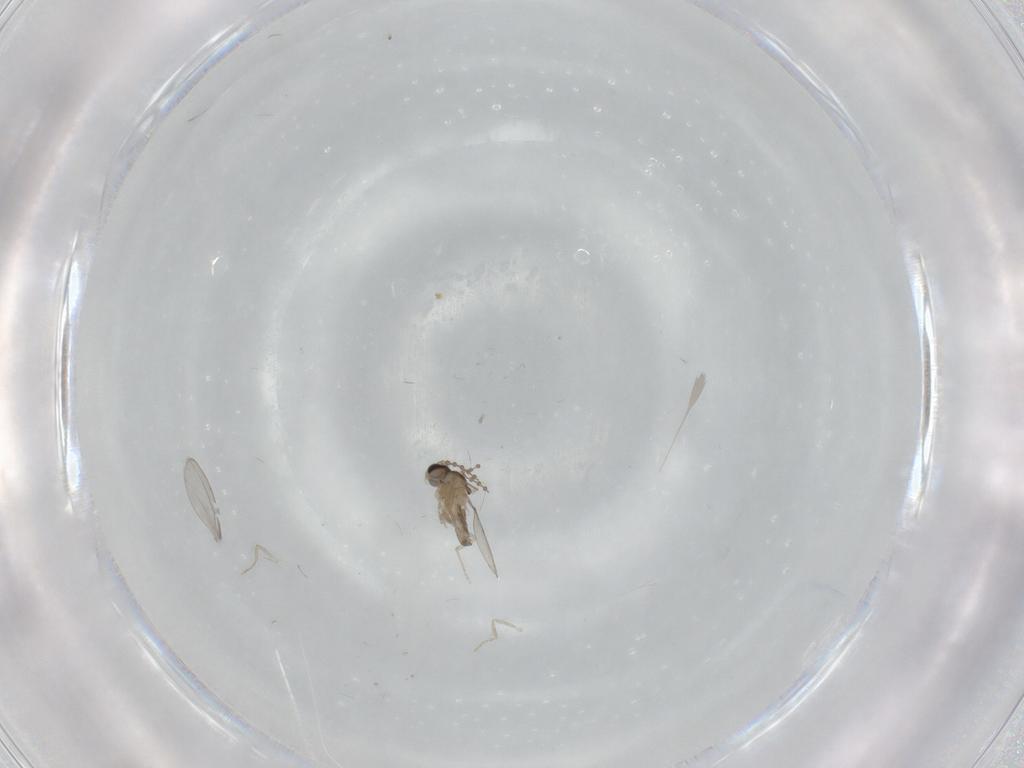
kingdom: Animalia
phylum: Arthropoda
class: Insecta
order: Diptera
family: Cecidomyiidae
